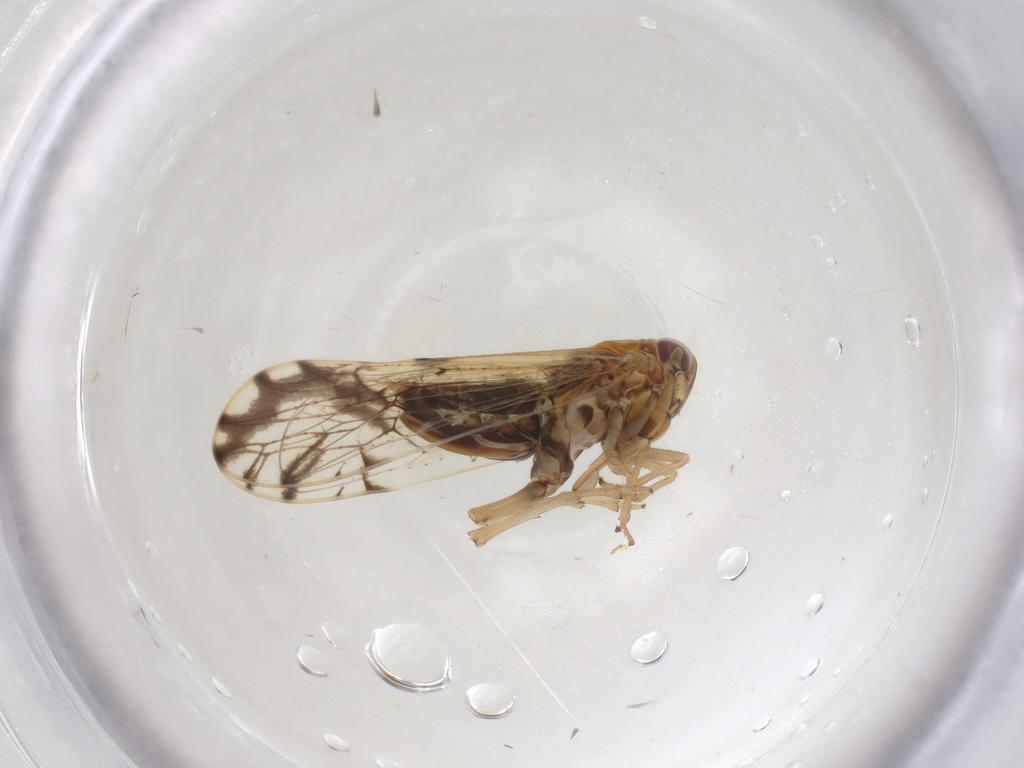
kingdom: Animalia
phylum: Arthropoda
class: Insecta
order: Hemiptera
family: Delphacidae
